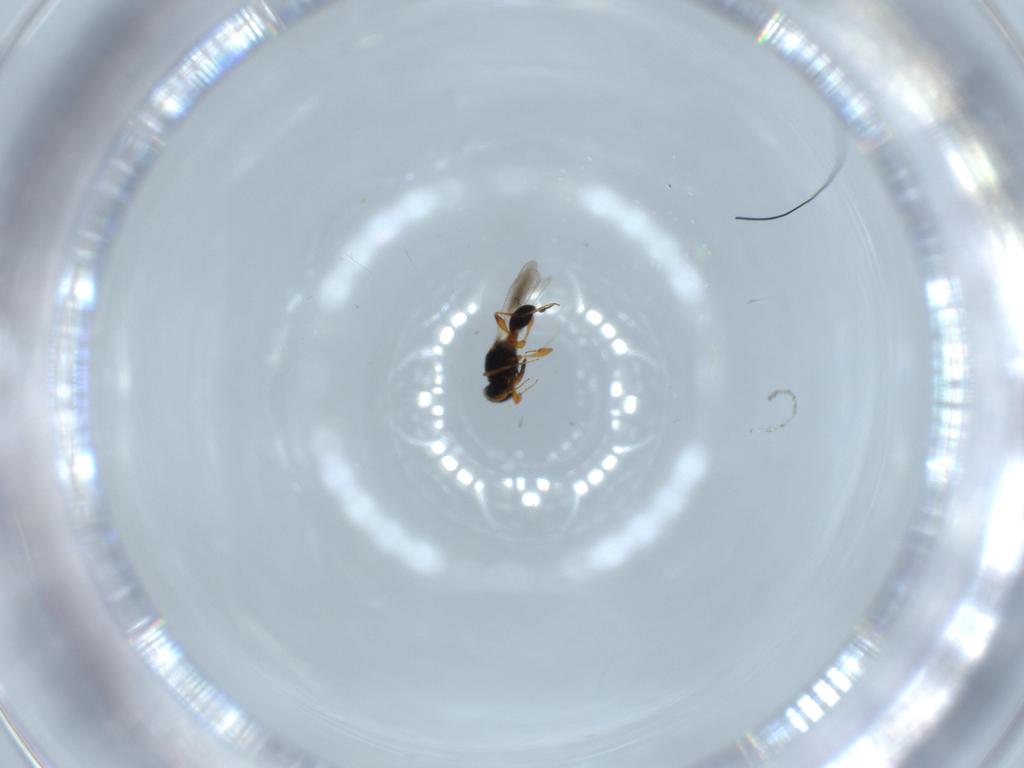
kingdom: Animalia
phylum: Arthropoda
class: Insecta
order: Hymenoptera
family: Platygastridae
